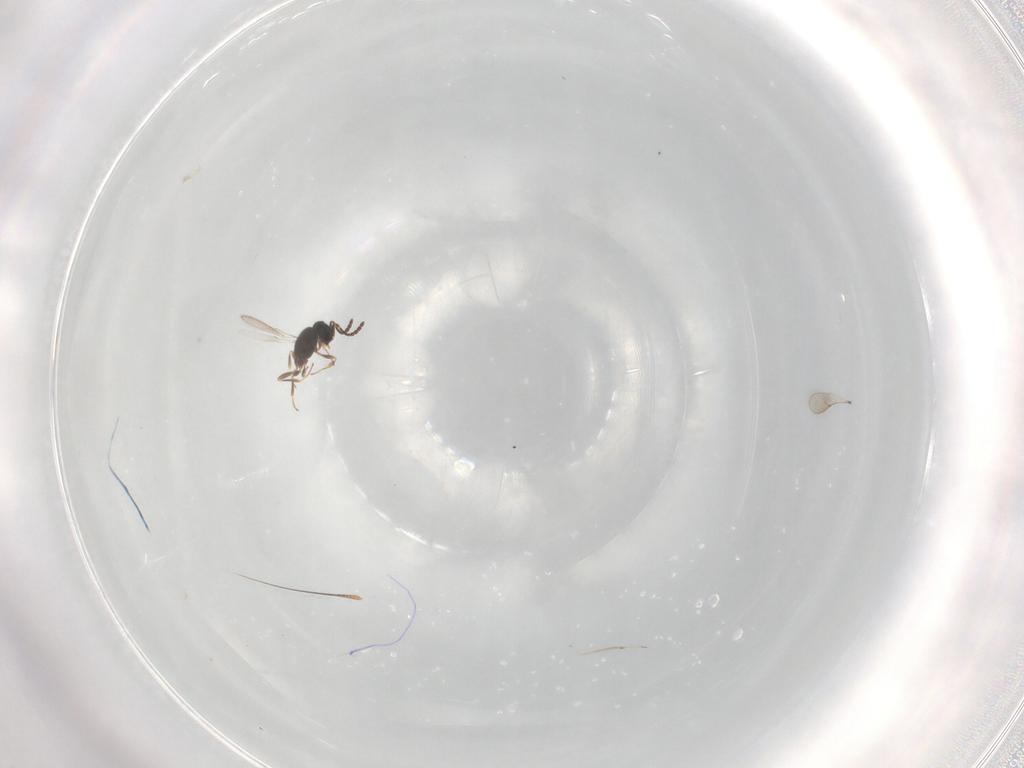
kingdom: Animalia
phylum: Arthropoda
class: Insecta
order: Hymenoptera
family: Scelionidae
